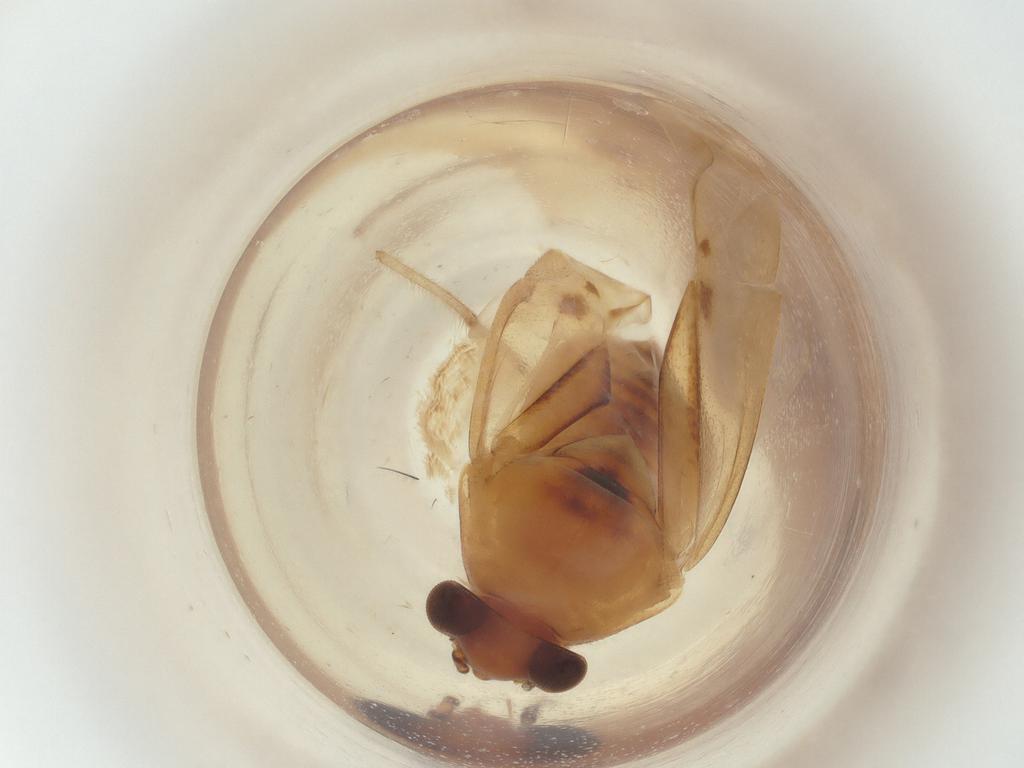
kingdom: Animalia
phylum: Arthropoda
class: Insecta
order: Hemiptera
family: Miridae
